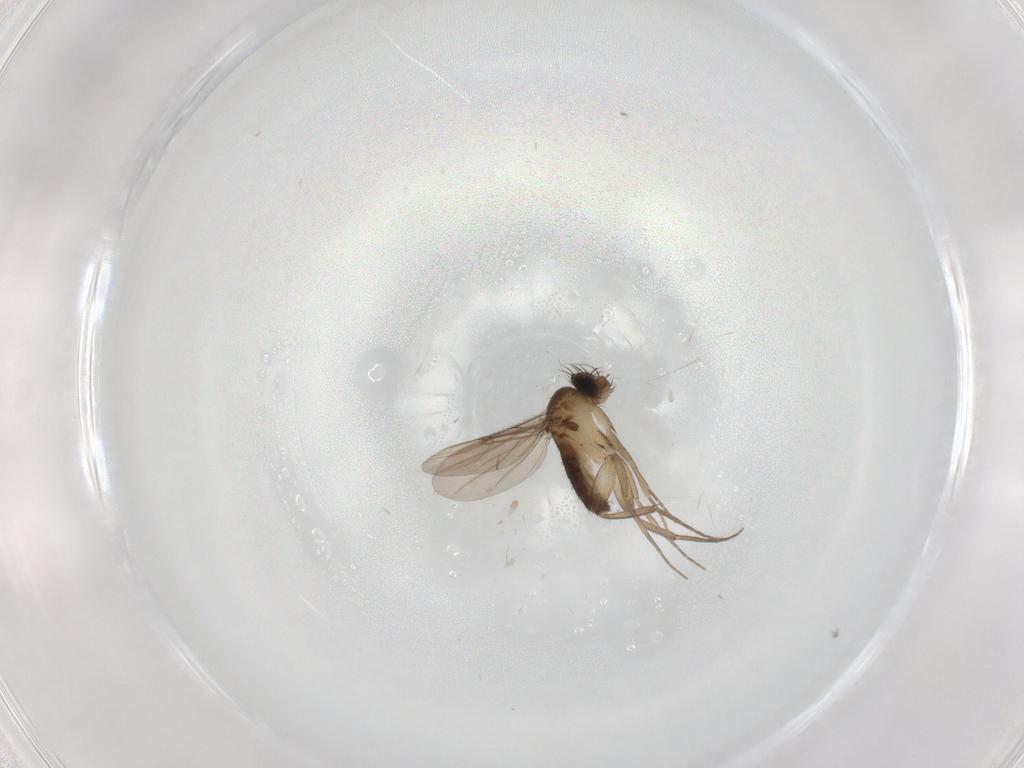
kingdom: Animalia
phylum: Arthropoda
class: Insecta
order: Diptera
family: Phoridae
